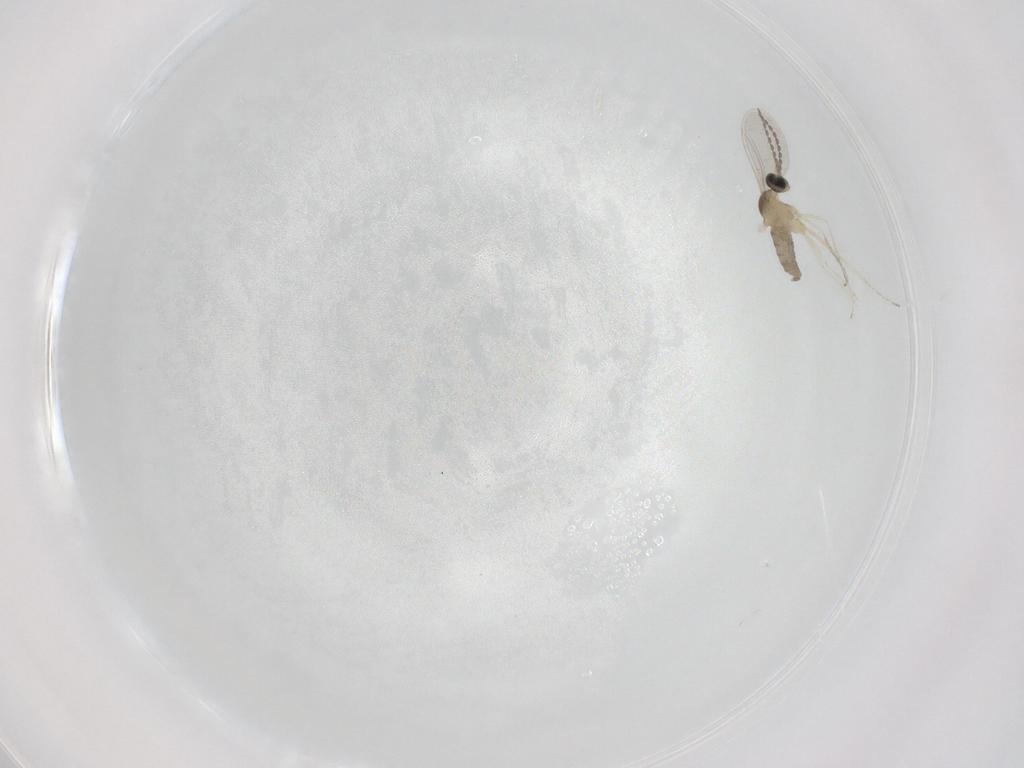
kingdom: Animalia
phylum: Arthropoda
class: Insecta
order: Diptera
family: Cecidomyiidae
